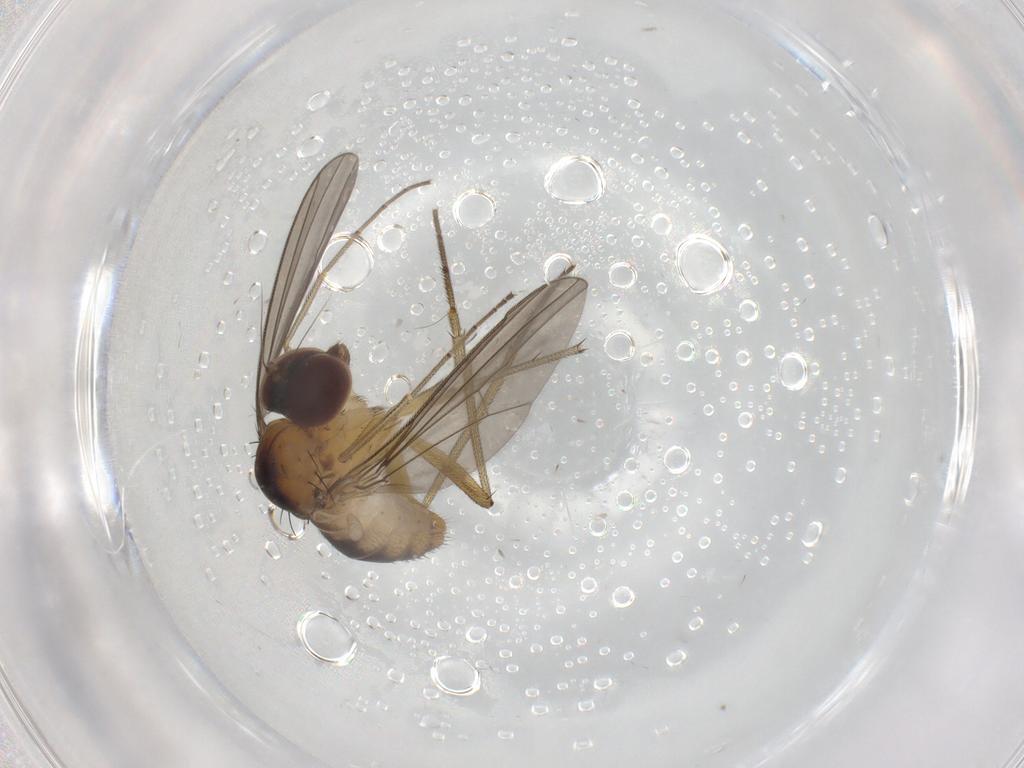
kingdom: Animalia
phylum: Arthropoda
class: Insecta
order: Diptera
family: Dolichopodidae
